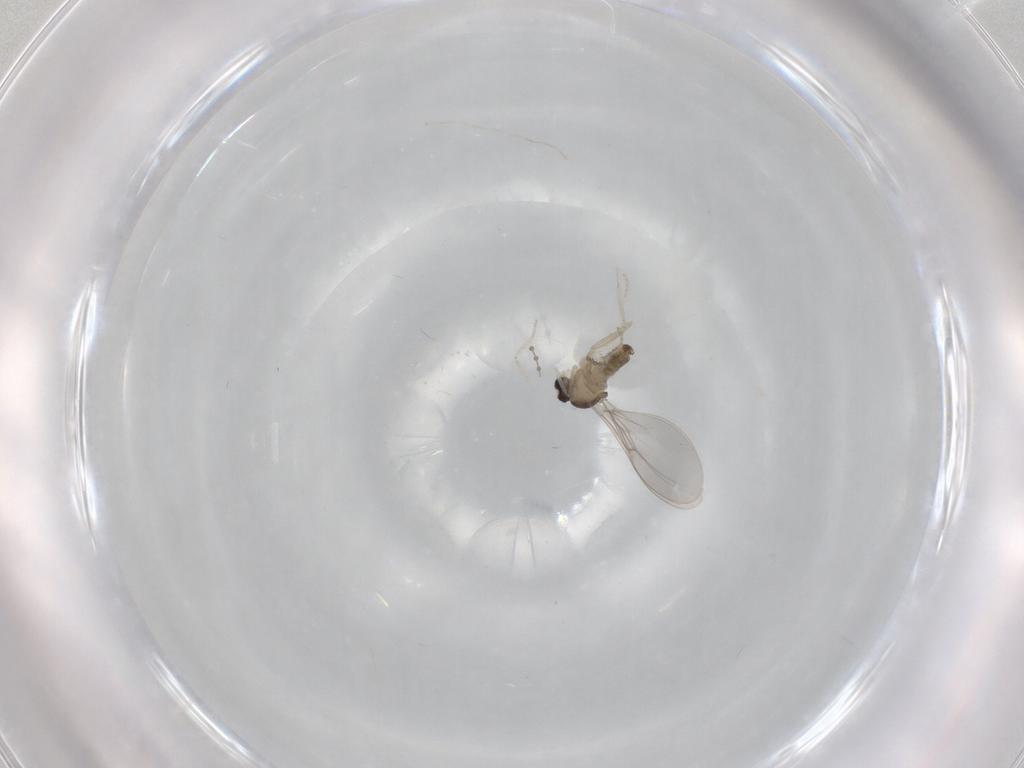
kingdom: Animalia
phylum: Arthropoda
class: Insecta
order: Diptera
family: Cecidomyiidae
